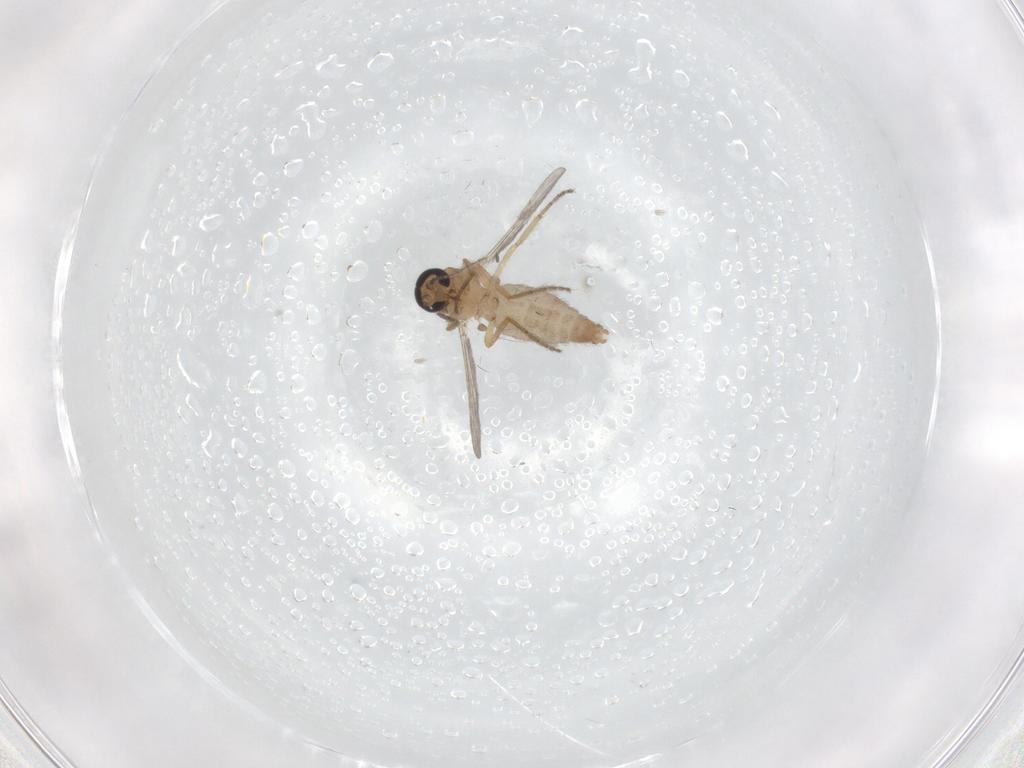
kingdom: Animalia
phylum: Arthropoda
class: Insecta
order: Diptera
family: Ceratopogonidae
